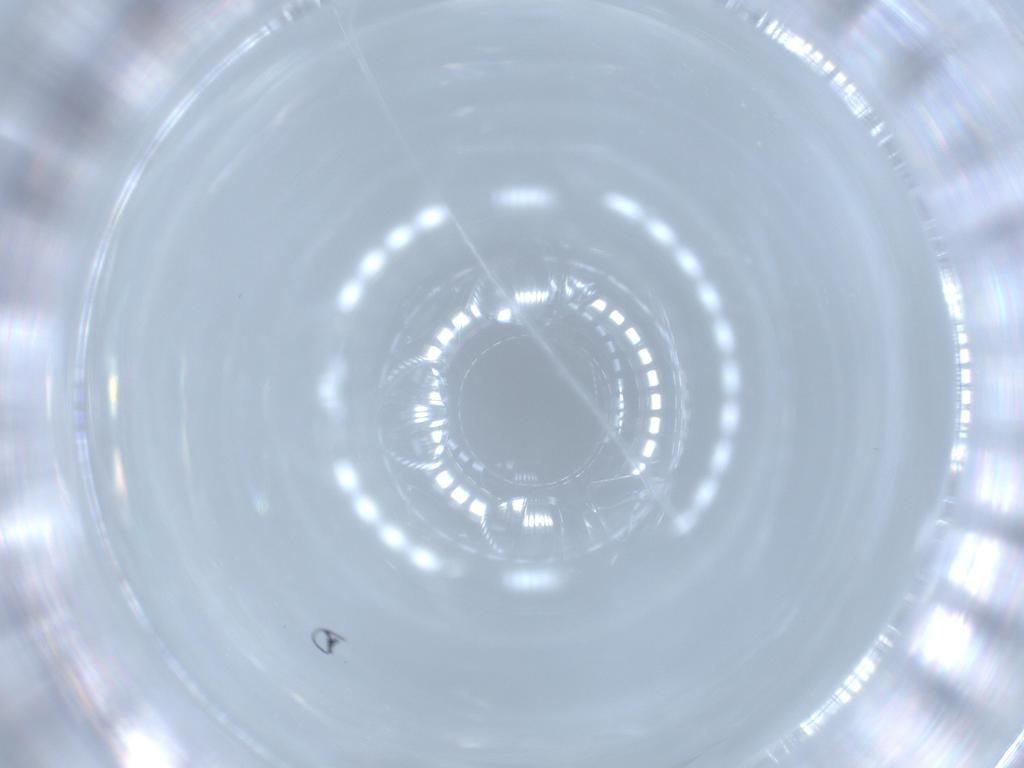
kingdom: Animalia
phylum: Arthropoda
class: Insecta
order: Diptera
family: Cecidomyiidae
